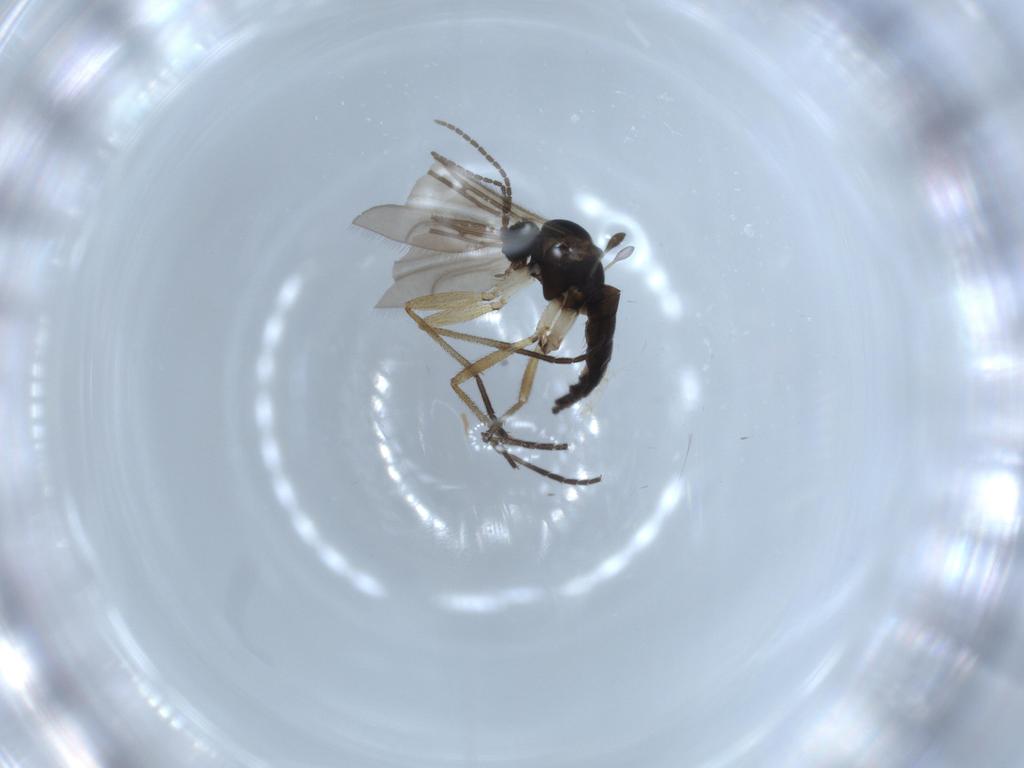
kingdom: Animalia
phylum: Arthropoda
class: Insecta
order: Diptera
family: Sciaridae
